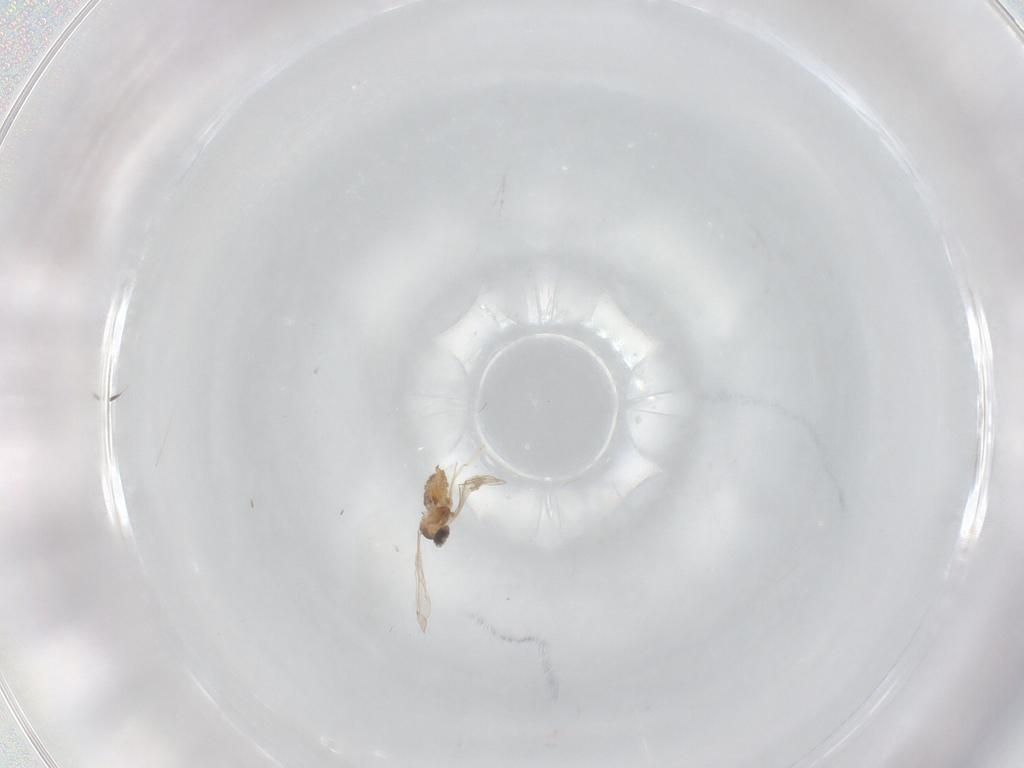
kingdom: Animalia
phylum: Arthropoda
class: Insecta
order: Diptera
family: Cecidomyiidae
